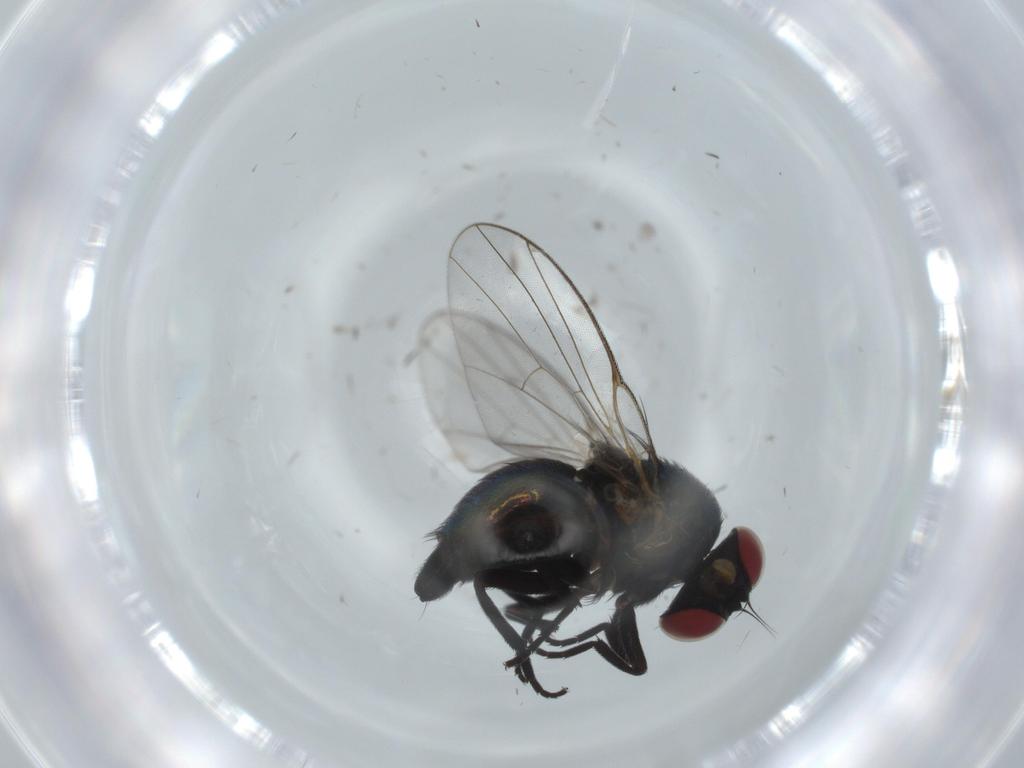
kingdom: Animalia
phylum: Arthropoda
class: Insecta
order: Diptera
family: Agromyzidae
